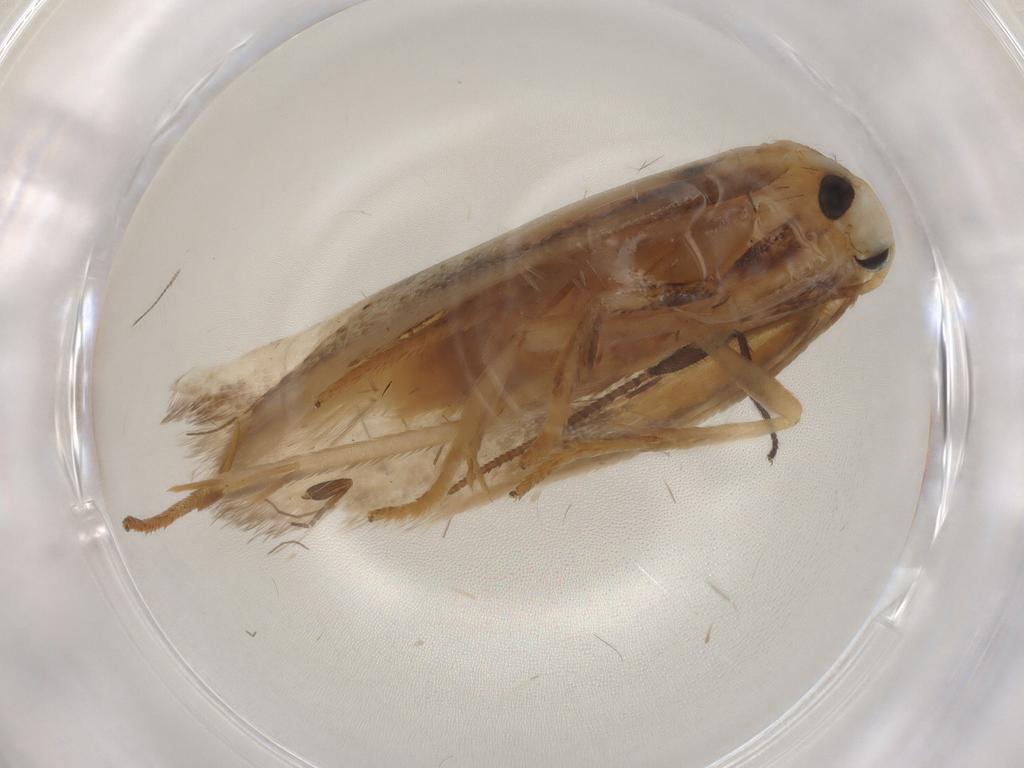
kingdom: Animalia
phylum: Arthropoda
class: Insecta
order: Lepidoptera
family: Geometridae
